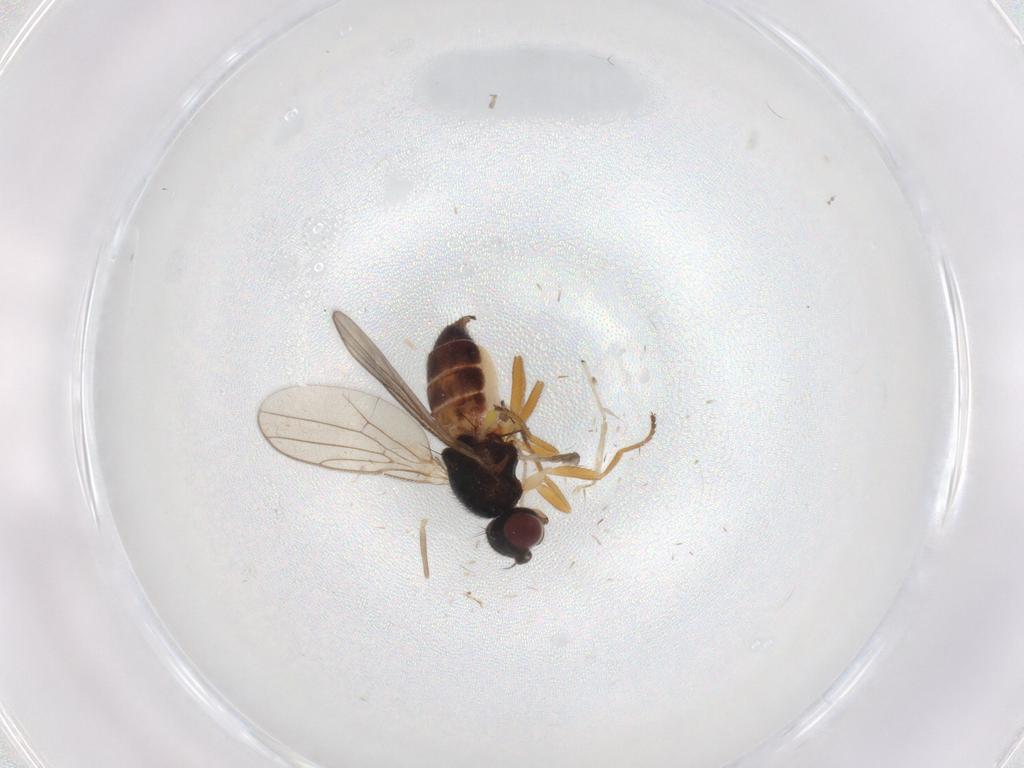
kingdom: Animalia
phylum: Arthropoda
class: Insecta
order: Diptera
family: Chloropidae
